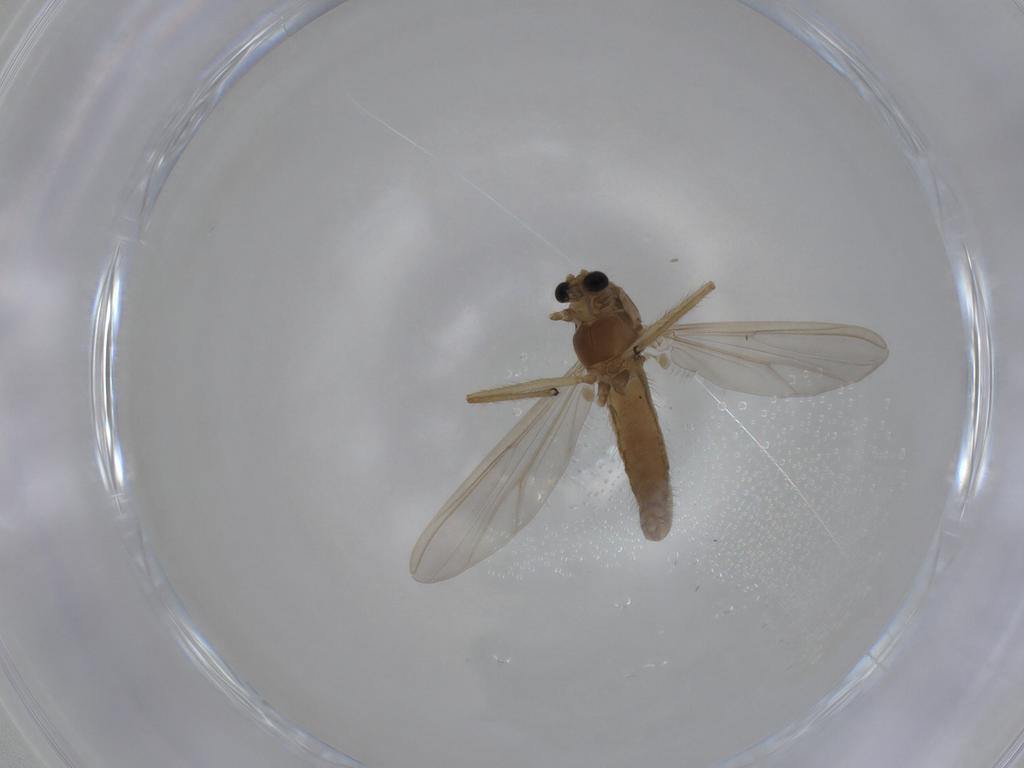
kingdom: Animalia
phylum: Arthropoda
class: Insecta
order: Diptera
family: Chironomidae
